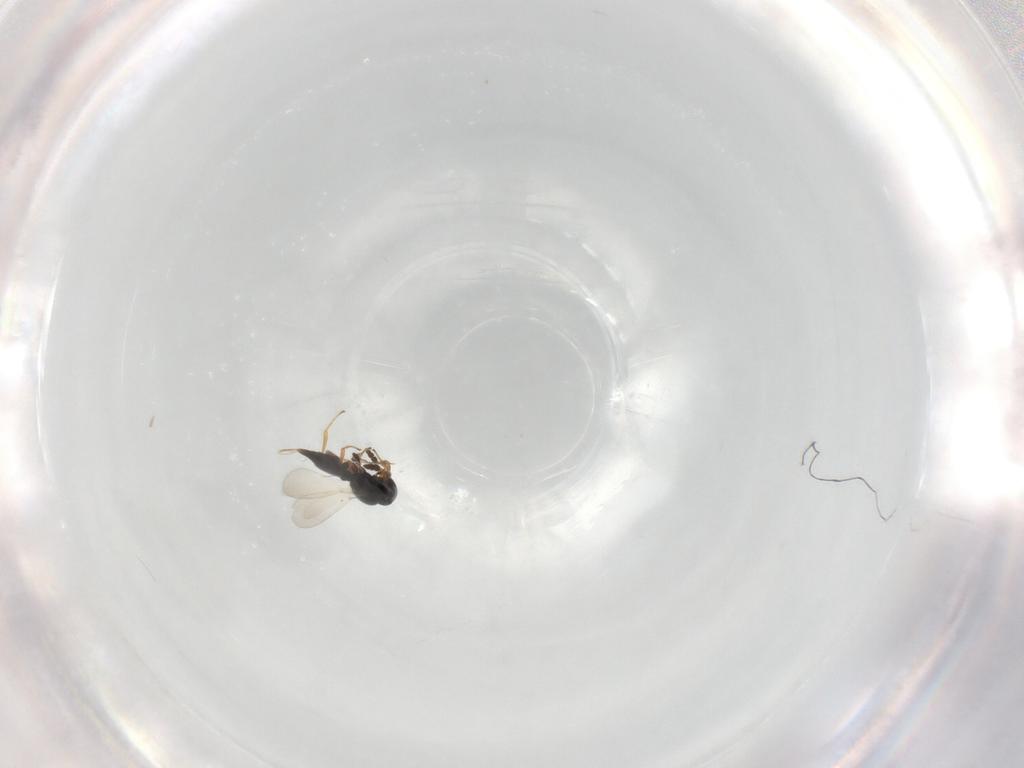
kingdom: Animalia
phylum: Arthropoda
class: Insecta
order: Hymenoptera
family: Platygastridae
